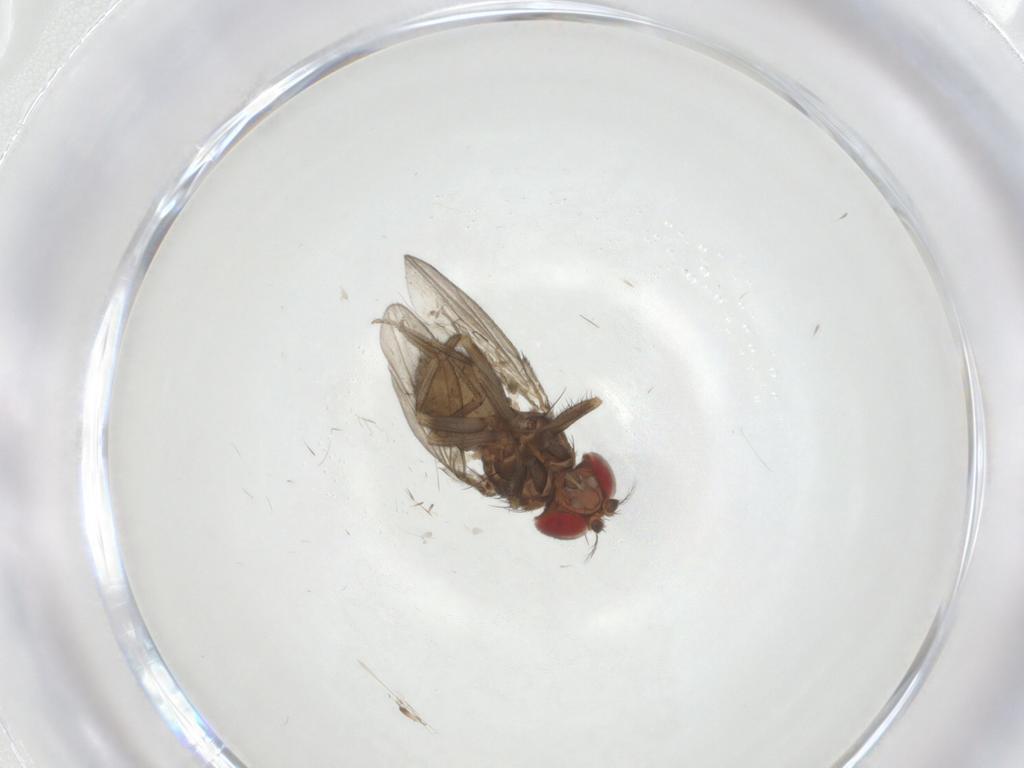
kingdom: Animalia
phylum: Arthropoda
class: Insecta
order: Diptera
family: Drosophilidae
